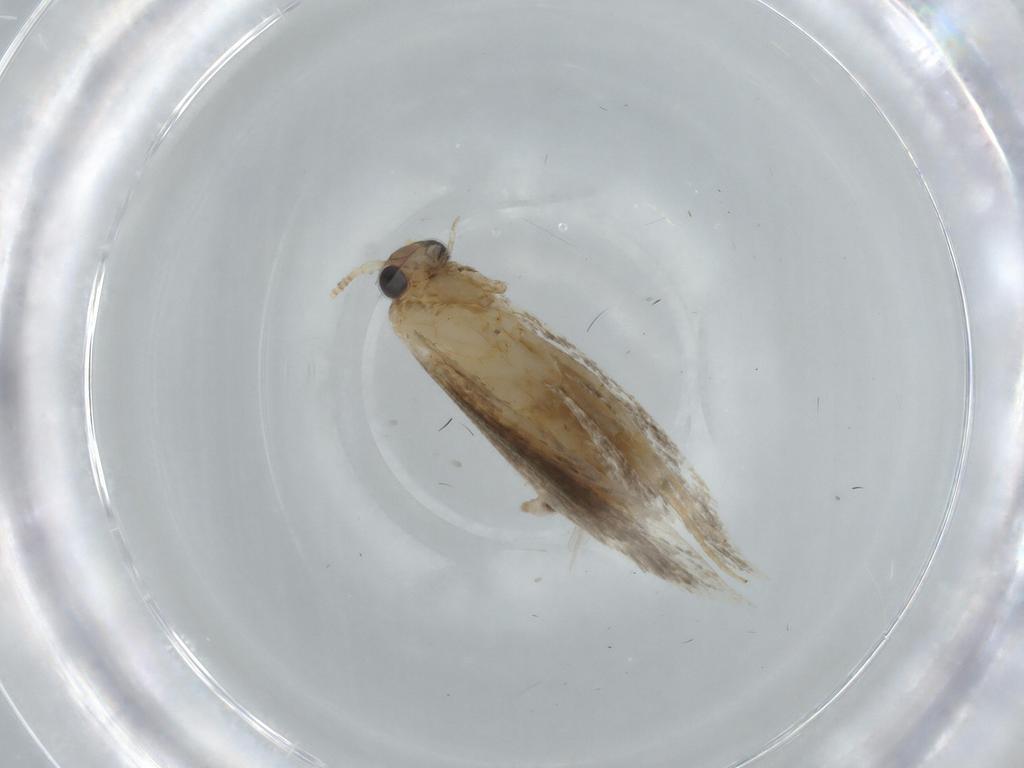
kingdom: Animalia
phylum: Arthropoda
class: Insecta
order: Lepidoptera
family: Tineidae
